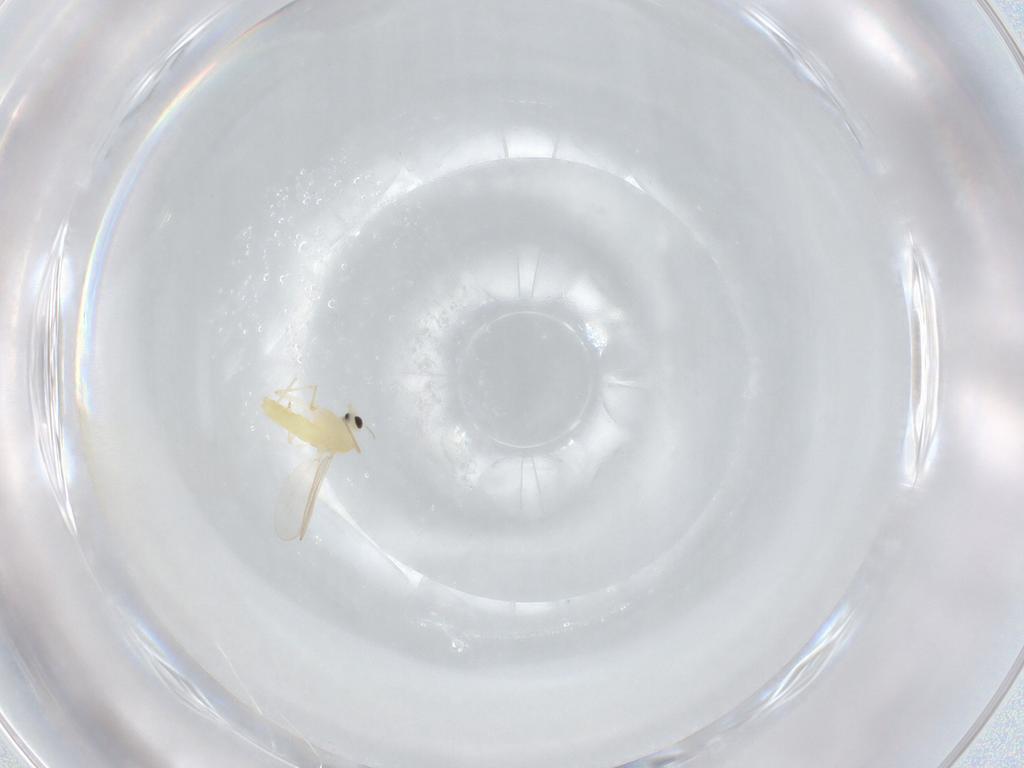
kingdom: Animalia
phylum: Arthropoda
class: Insecta
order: Diptera
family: Chironomidae
